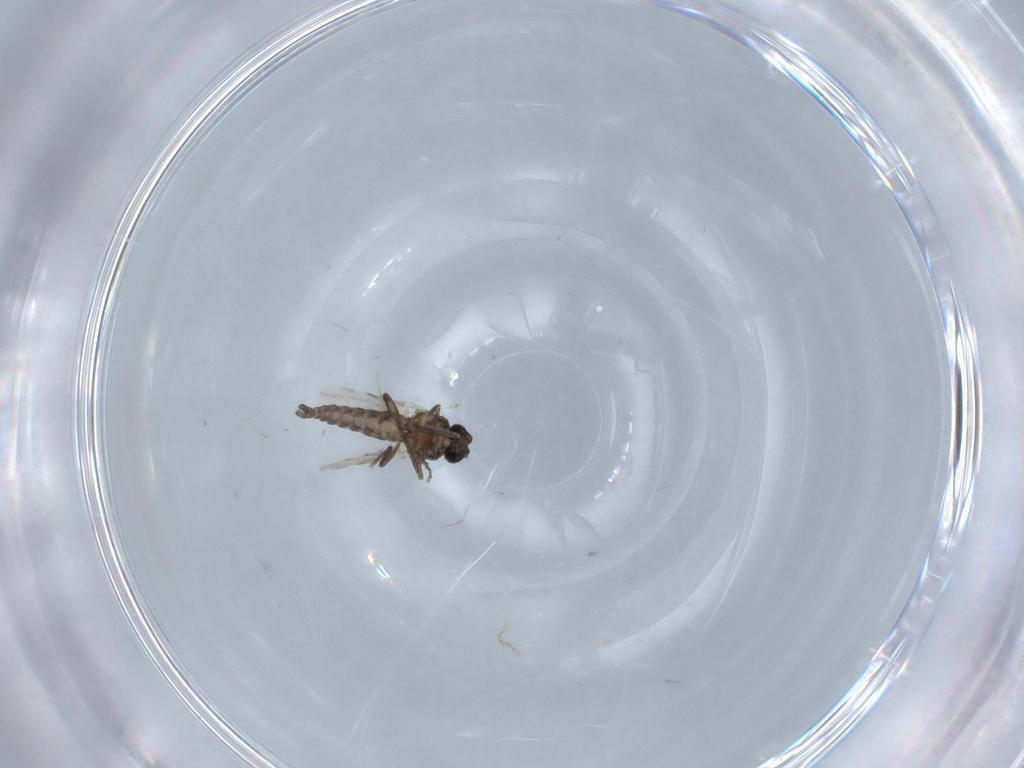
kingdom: Animalia
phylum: Arthropoda
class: Insecta
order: Diptera
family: Ceratopogonidae
